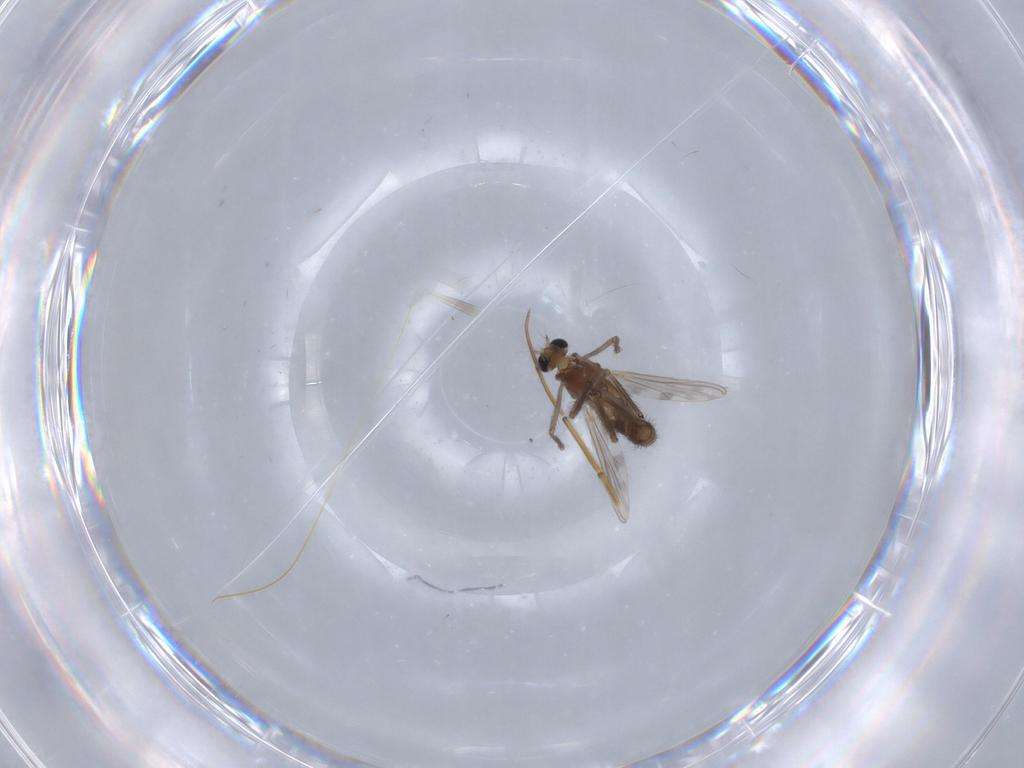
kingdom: Animalia
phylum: Arthropoda
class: Insecta
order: Diptera
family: Chironomidae
